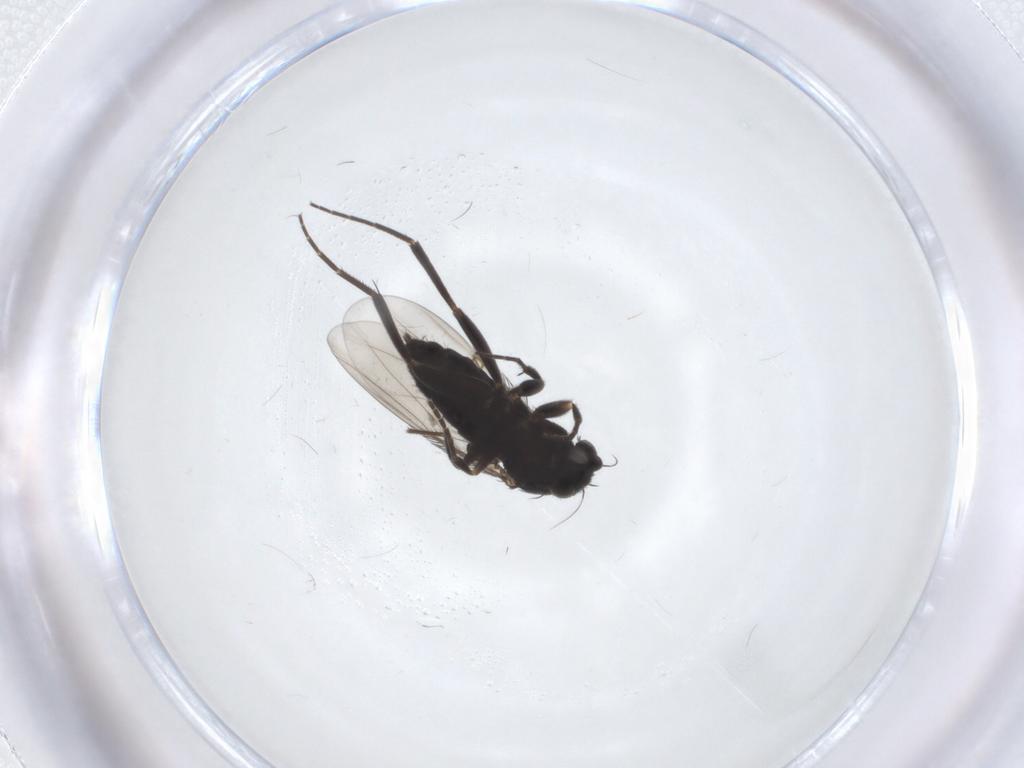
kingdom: Animalia
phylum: Arthropoda
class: Insecta
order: Diptera
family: Phoridae
